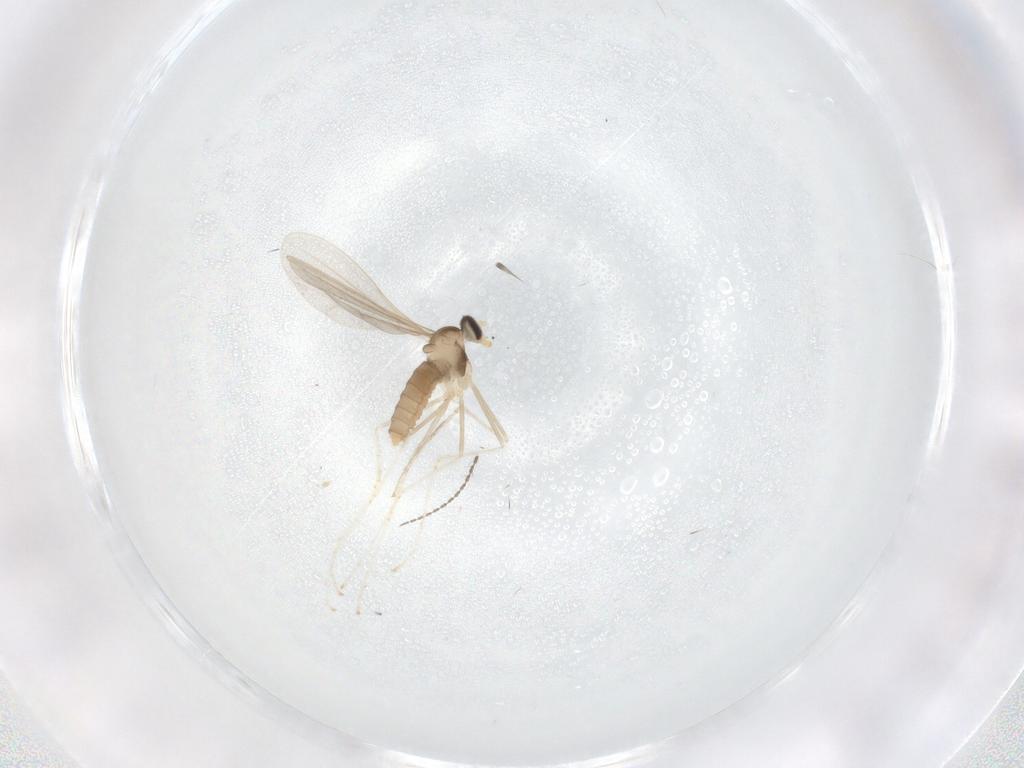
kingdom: Animalia
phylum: Arthropoda
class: Insecta
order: Diptera
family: Cecidomyiidae
